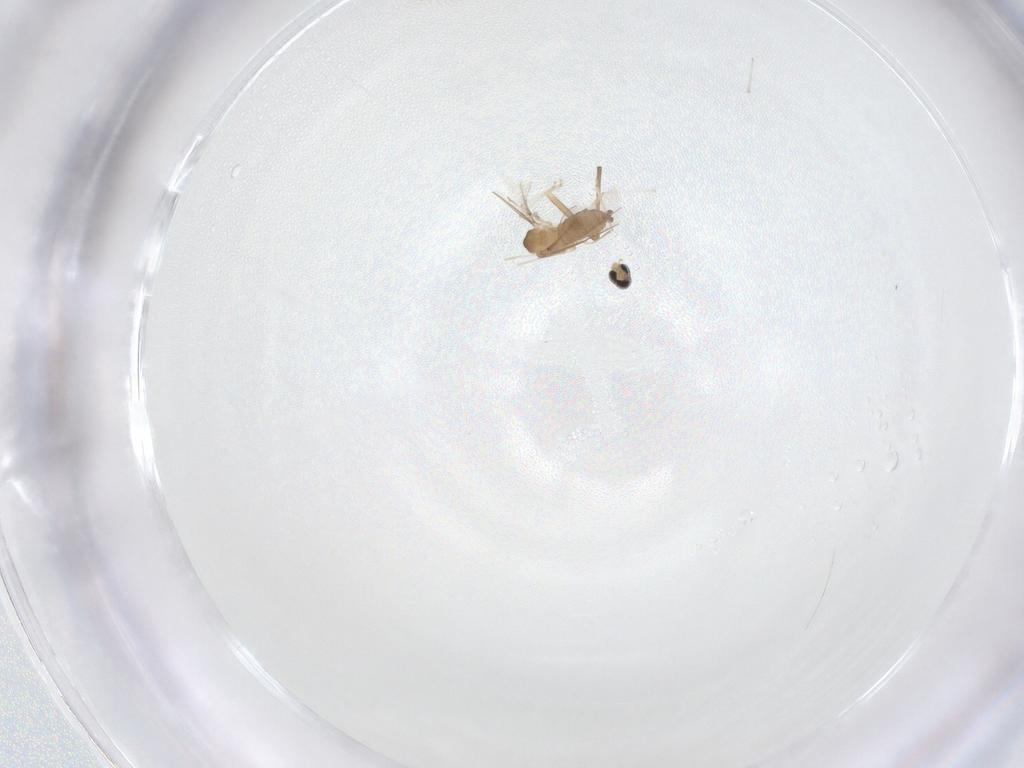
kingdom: Animalia
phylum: Arthropoda
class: Insecta
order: Diptera
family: Cecidomyiidae
